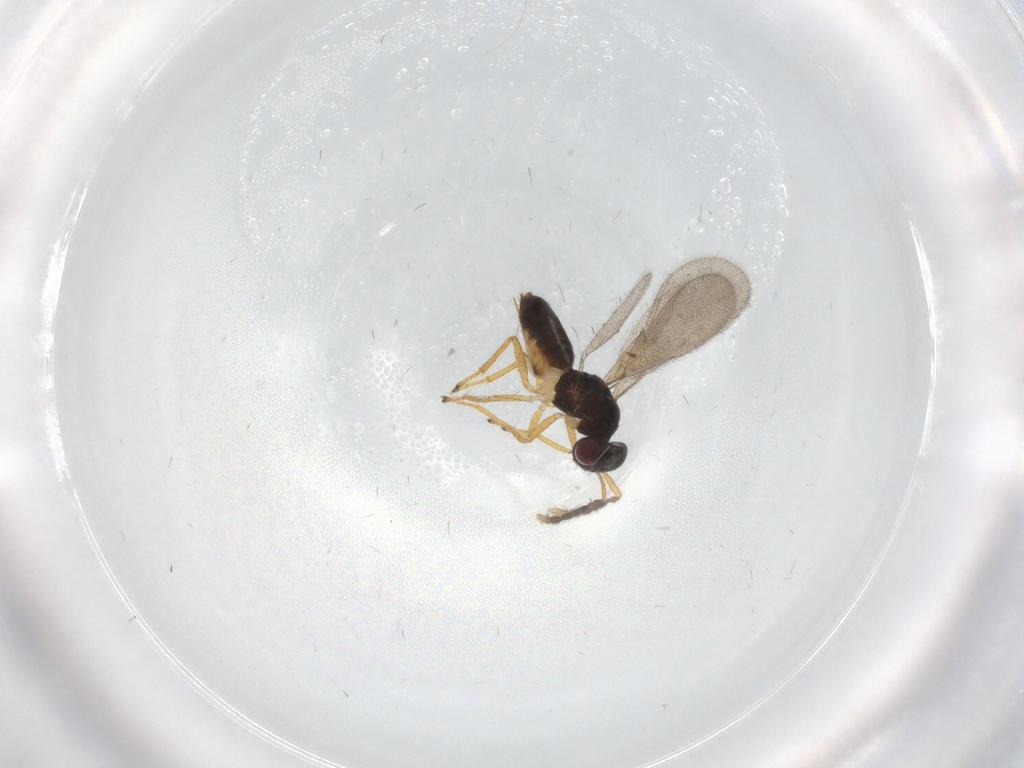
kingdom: Animalia
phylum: Arthropoda
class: Insecta
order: Hymenoptera
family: Eulophidae
